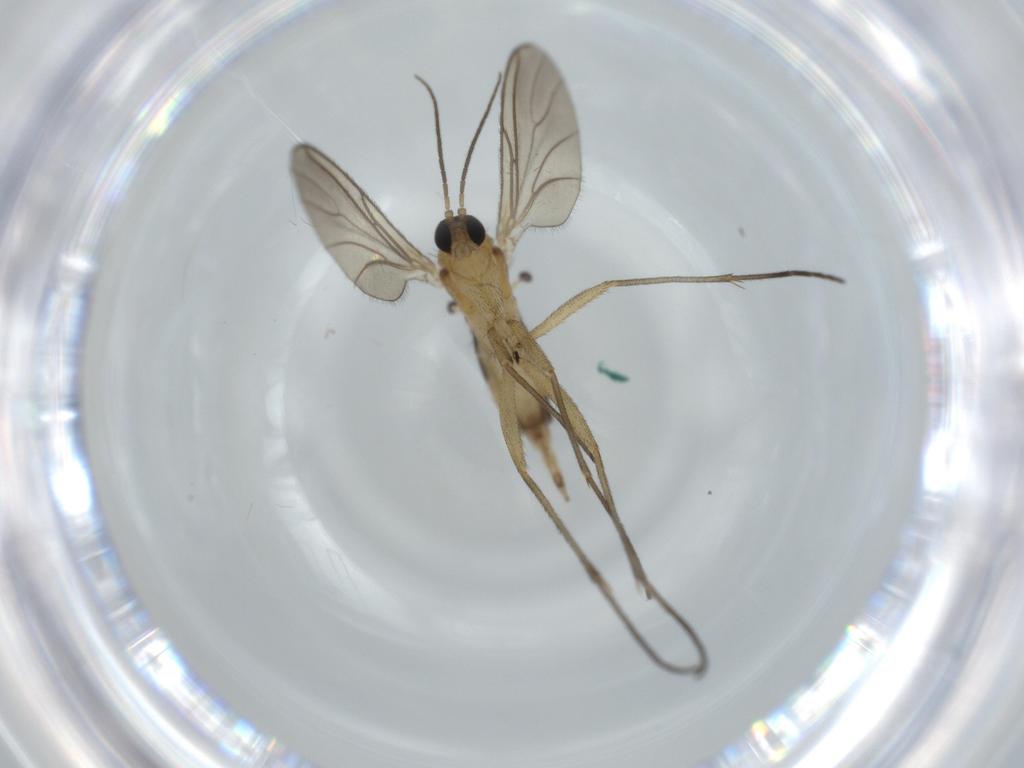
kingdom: Animalia
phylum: Arthropoda
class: Insecta
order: Diptera
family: Sciaridae
